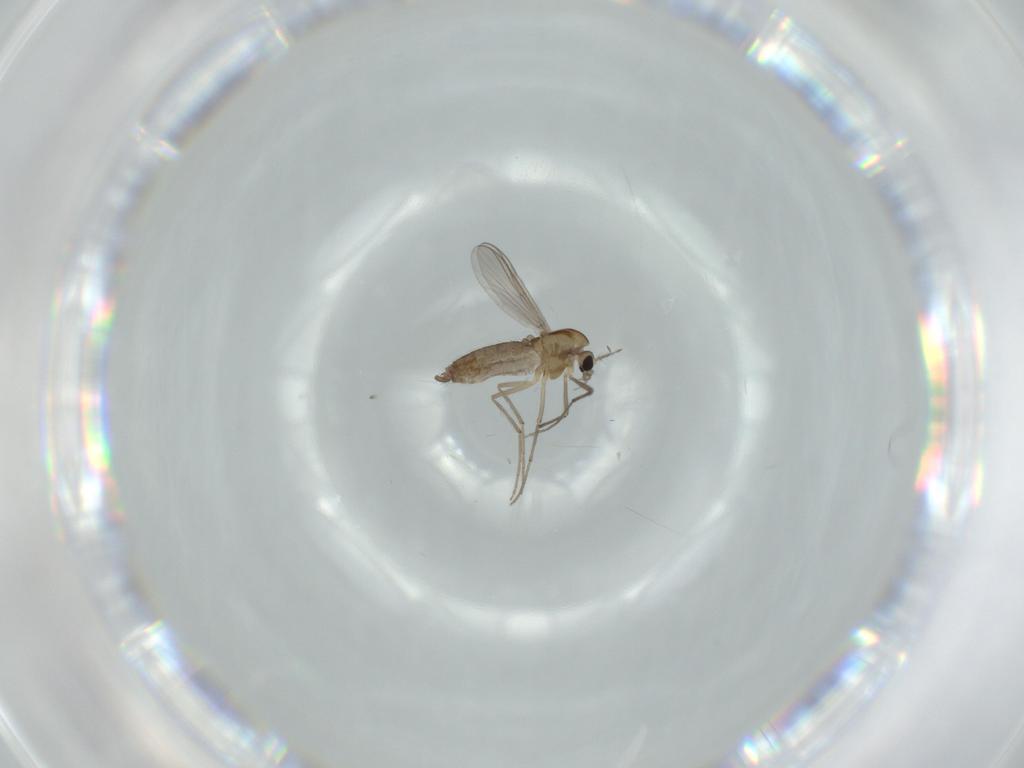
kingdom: Animalia
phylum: Arthropoda
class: Insecta
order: Diptera
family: Chironomidae
